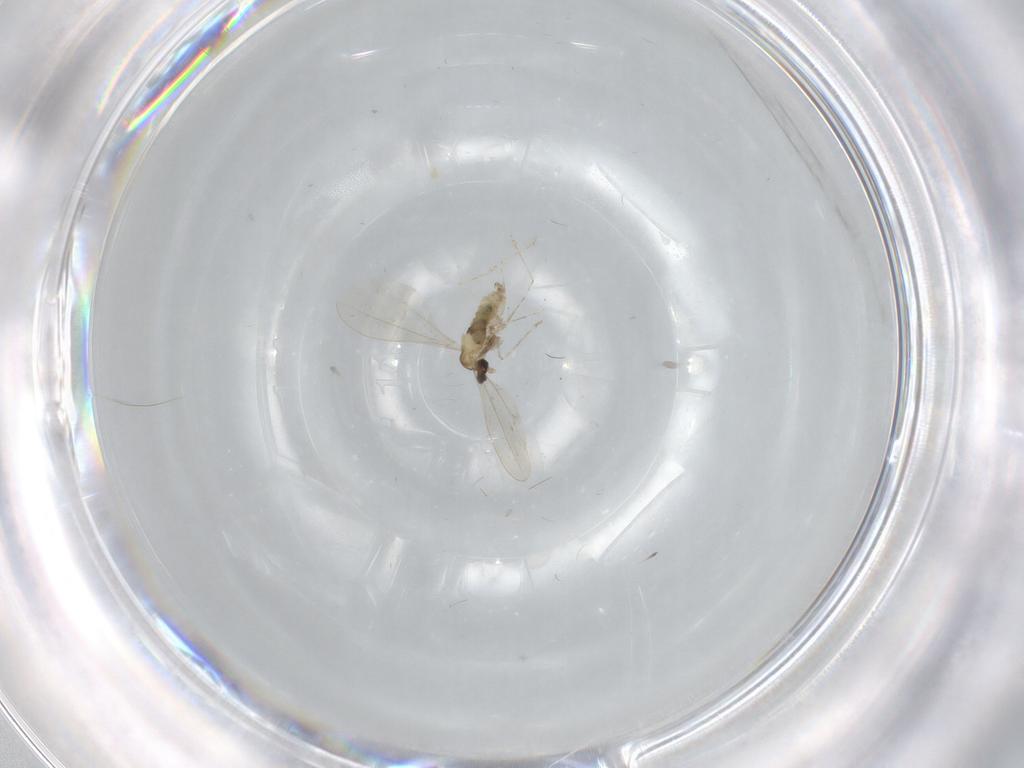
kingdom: Animalia
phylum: Arthropoda
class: Insecta
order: Diptera
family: Cecidomyiidae
